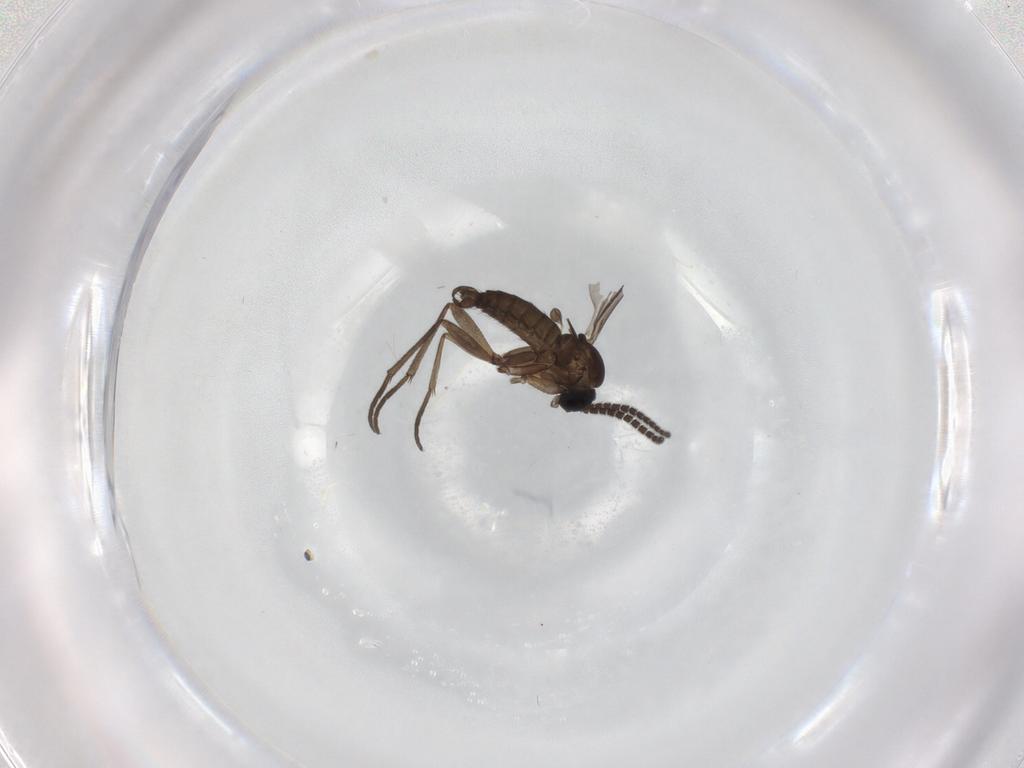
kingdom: Animalia
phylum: Arthropoda
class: Insecta
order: Diptera
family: Sciaridae
